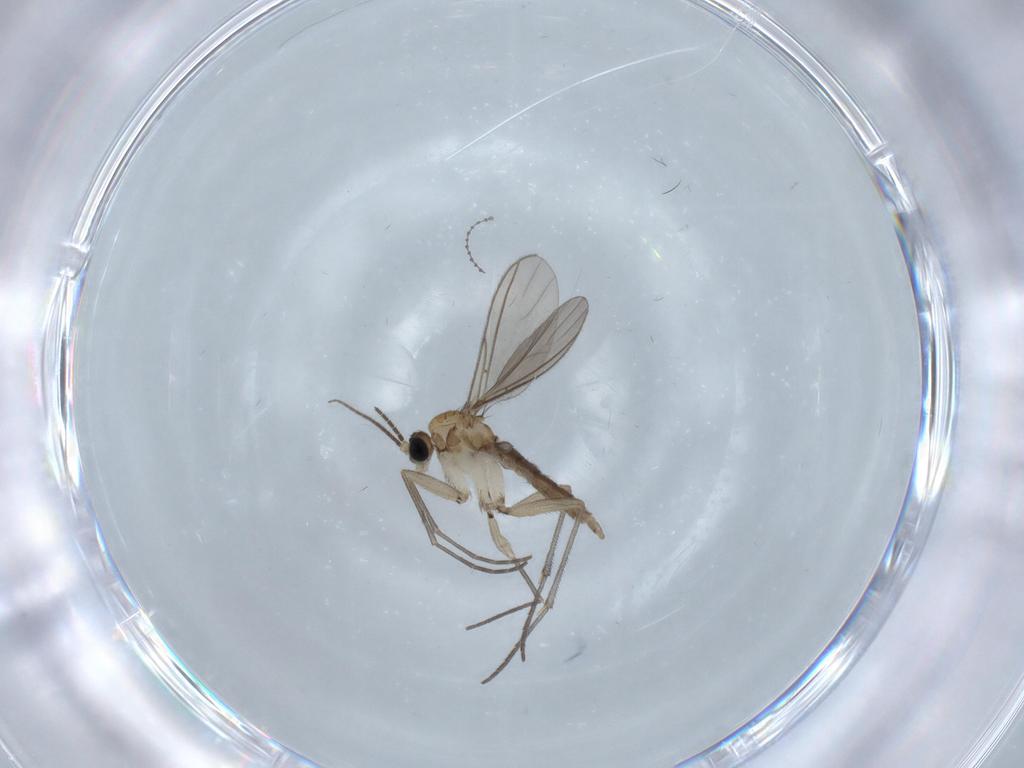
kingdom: Animalia
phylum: Arthropoda
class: Insecta
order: Diptera
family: Sciaridae
